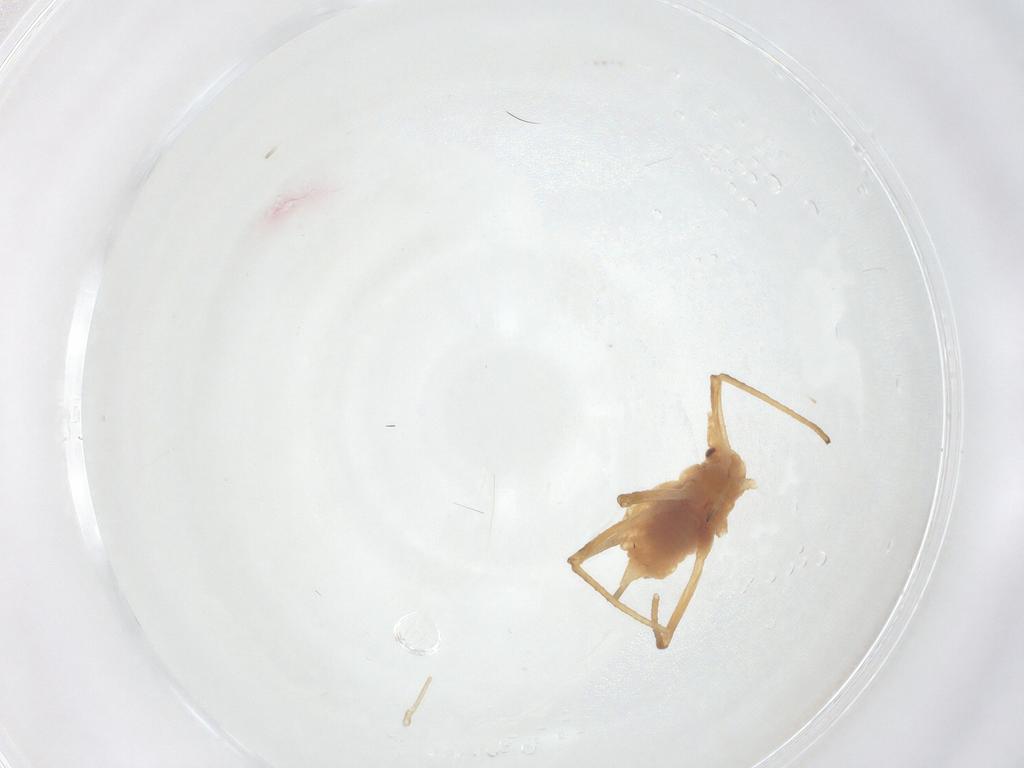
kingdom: Animalia
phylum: Arthropoda
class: Insecta
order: Hemiptera
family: Aphididae
